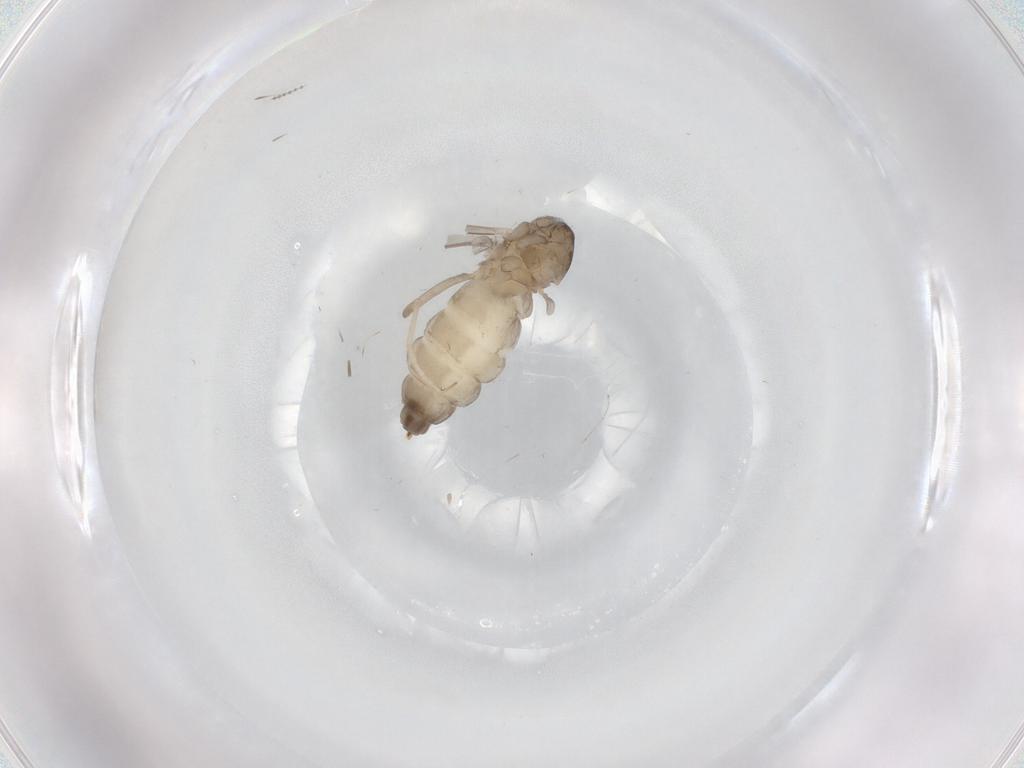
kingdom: Animalia
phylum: Arthropoda
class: Insecta
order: Diptera
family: Cecidomyiidae
